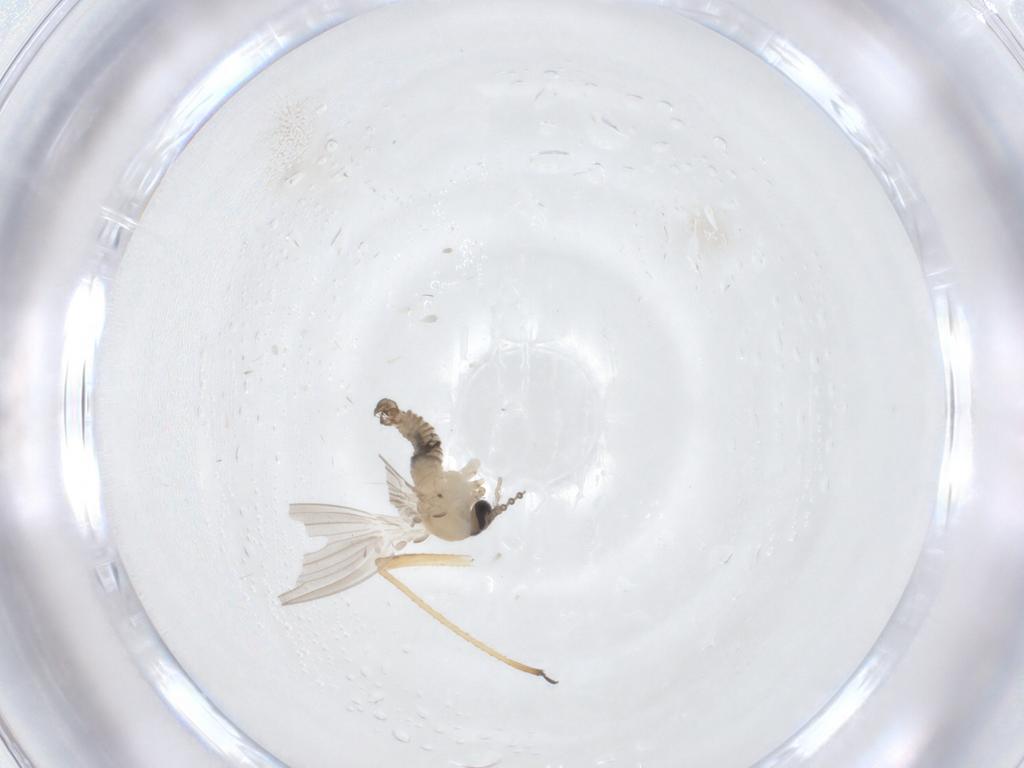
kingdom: Animalia
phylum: Arthropoda
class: Insecta
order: Diptera
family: Psychodidae
